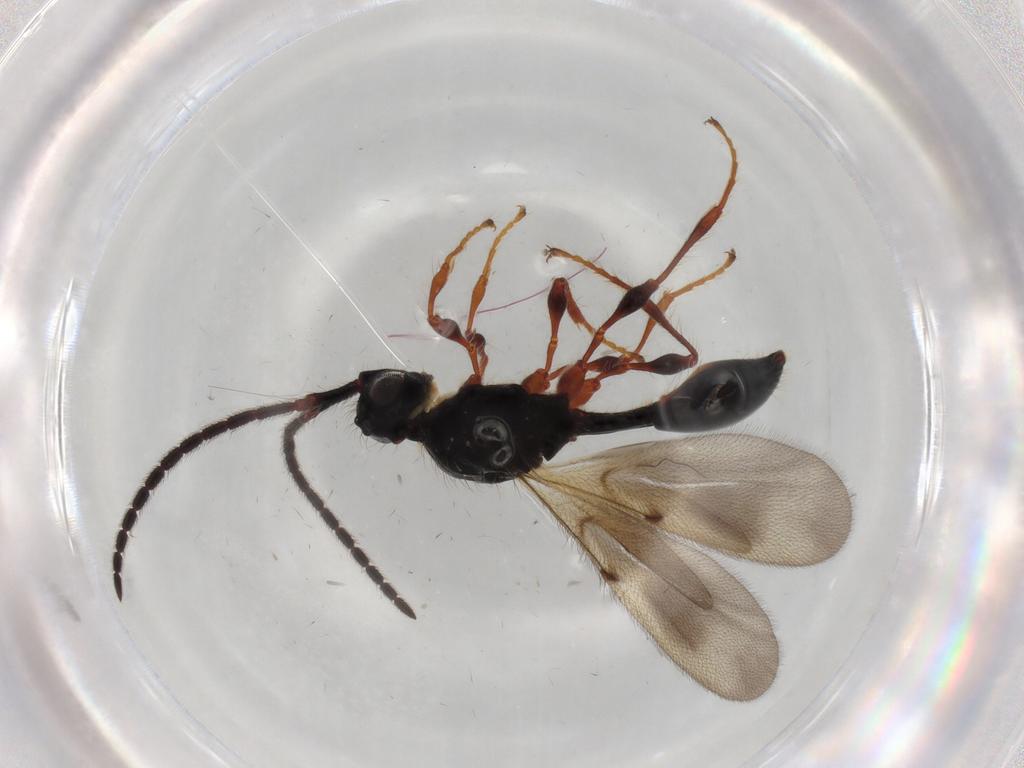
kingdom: Animalia
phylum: Arthropoda
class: Insecta
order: Hymenoptera
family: Diapriidae
